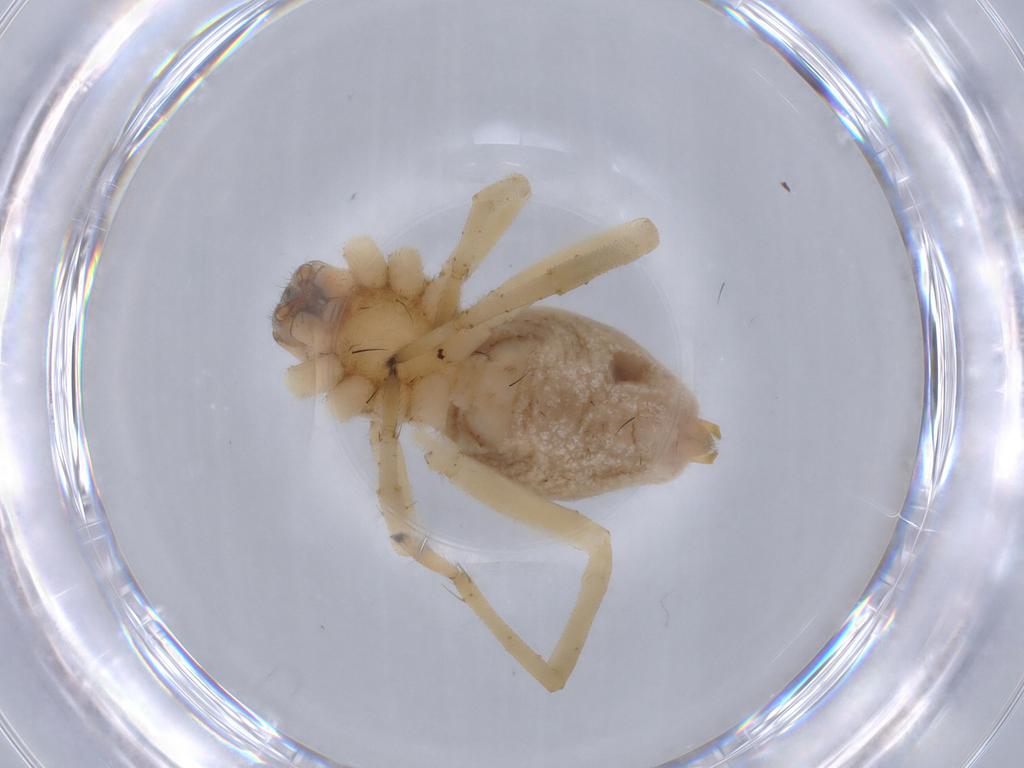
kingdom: Animalia
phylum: Arthropoda
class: Arachnida
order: Araneae
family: Cheiracanthiidae
